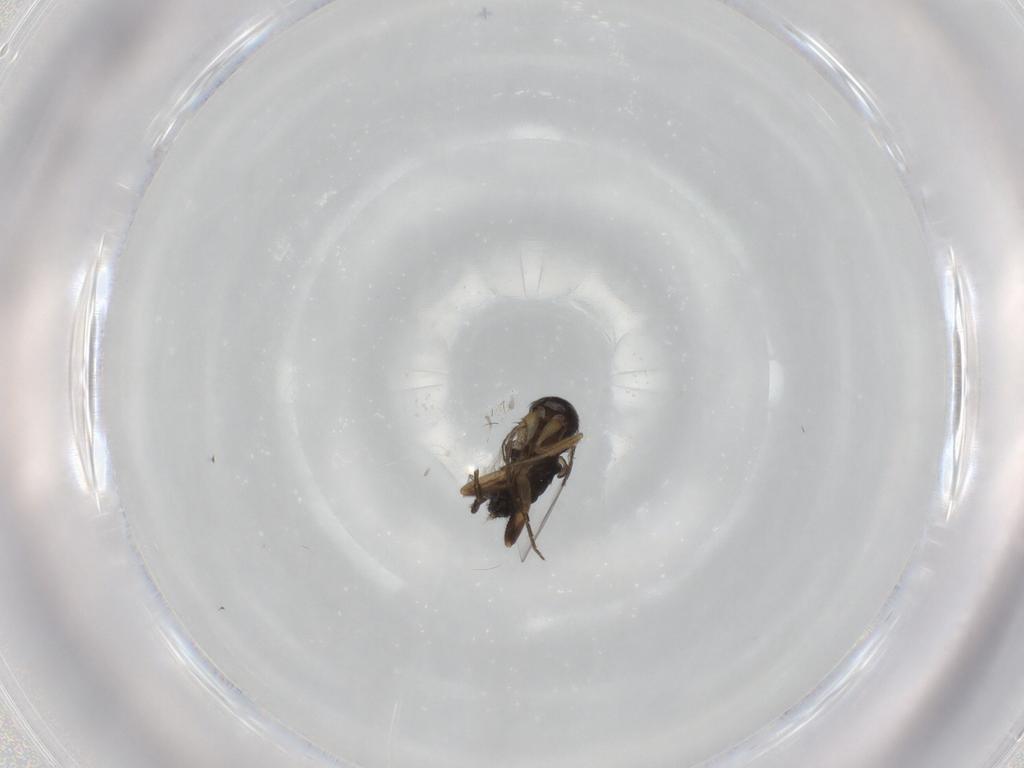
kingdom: Animalia
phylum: Arthropoda
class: Insecta
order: Diptera
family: Phoridae
